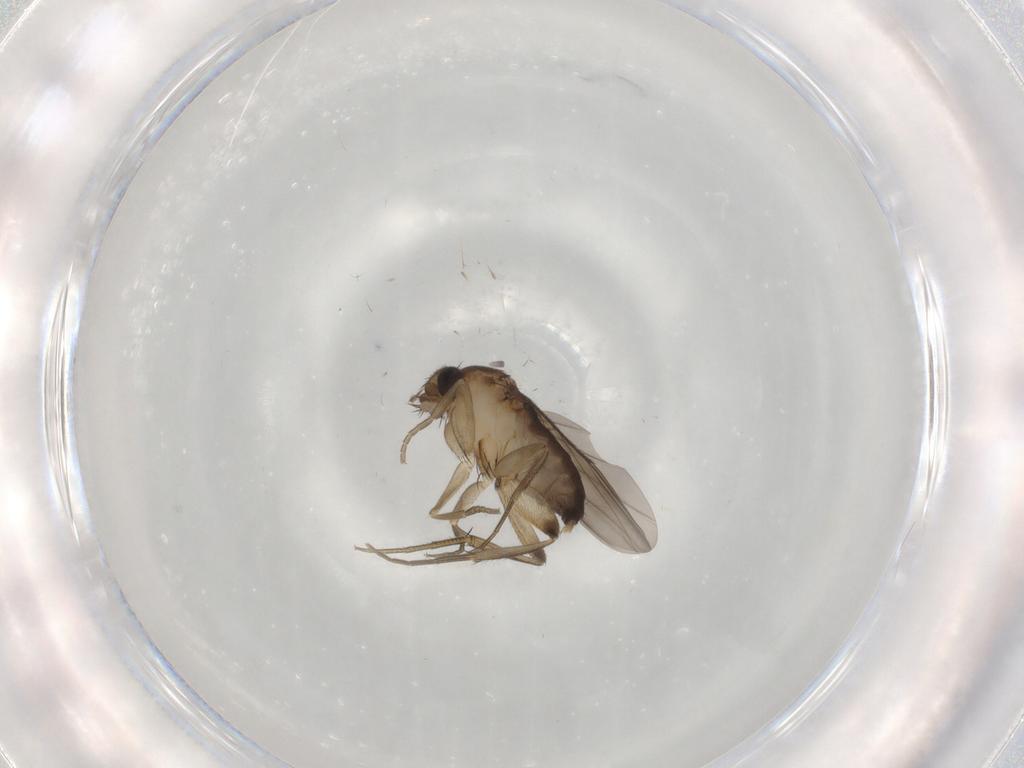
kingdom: Animalia
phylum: Arthropoda
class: Insecta
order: Diptera
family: Phoridae
